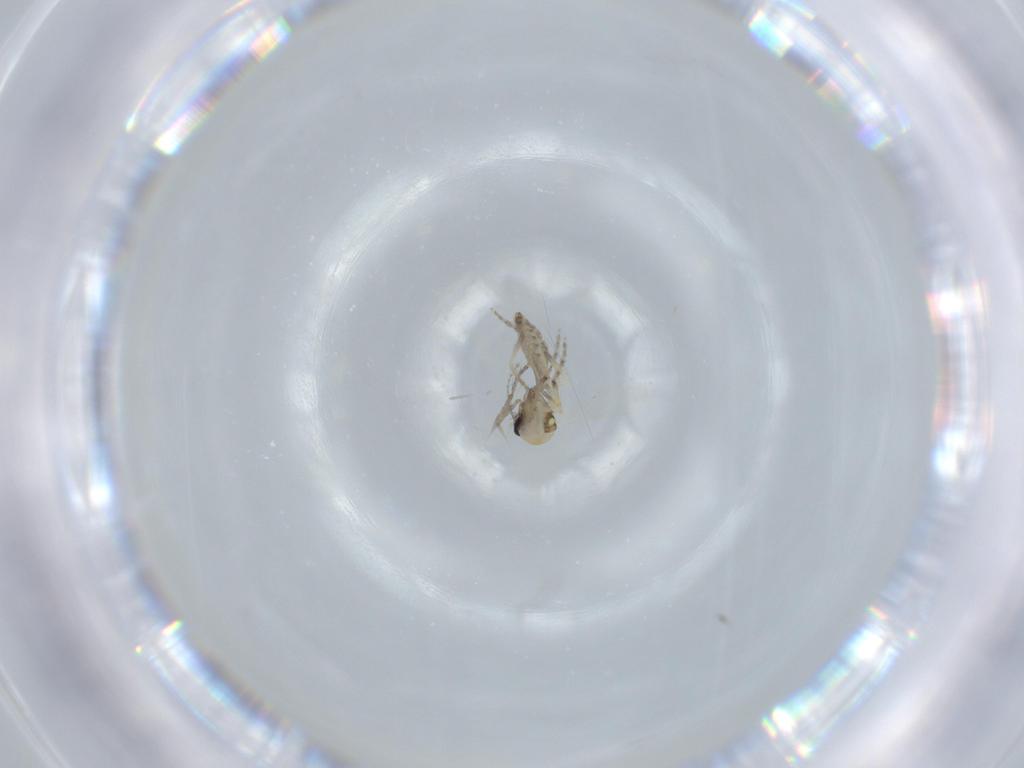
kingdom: Animalia
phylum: Arthropoda
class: Insecta
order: Diptera
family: Ceratopogonidae
